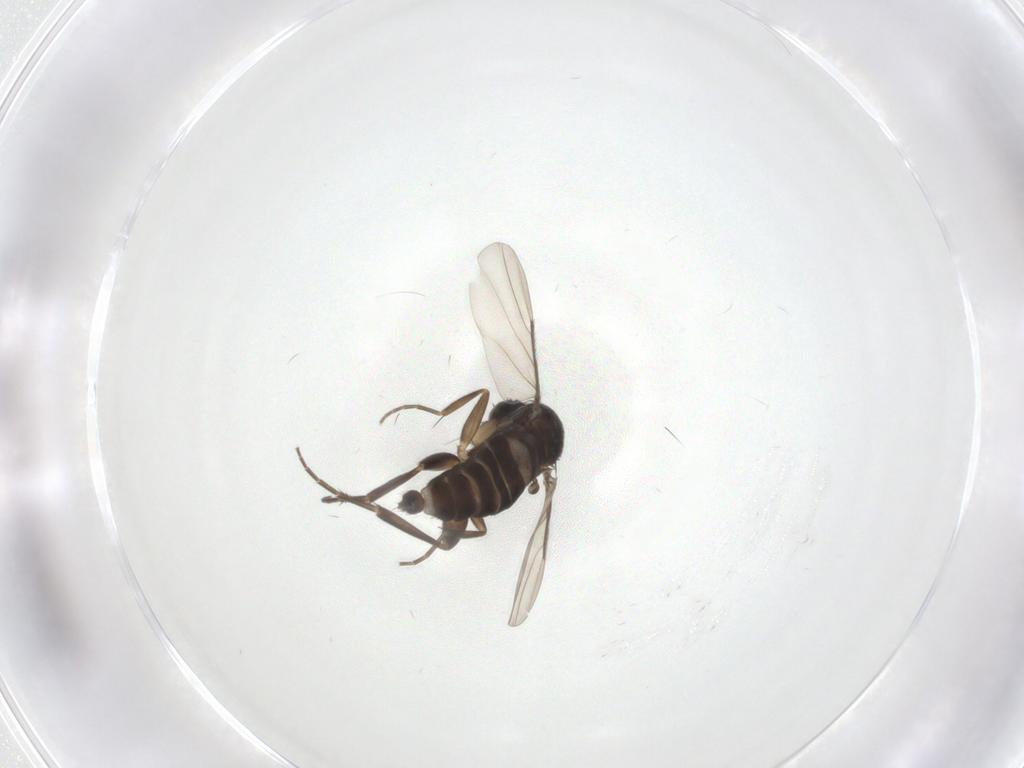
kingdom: Animalia
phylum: Arthropoda
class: Insecta
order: Diptera
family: Phoridae
